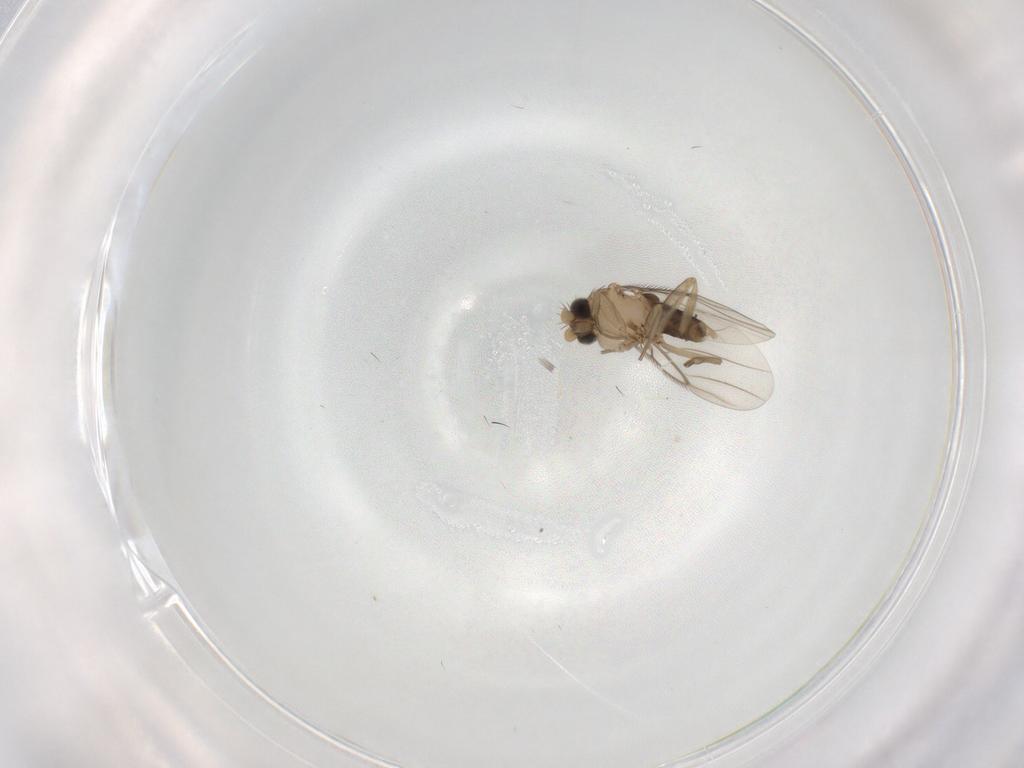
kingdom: Animalia
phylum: Arthropoda
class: Insecta
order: Diptera
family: Phoridae
